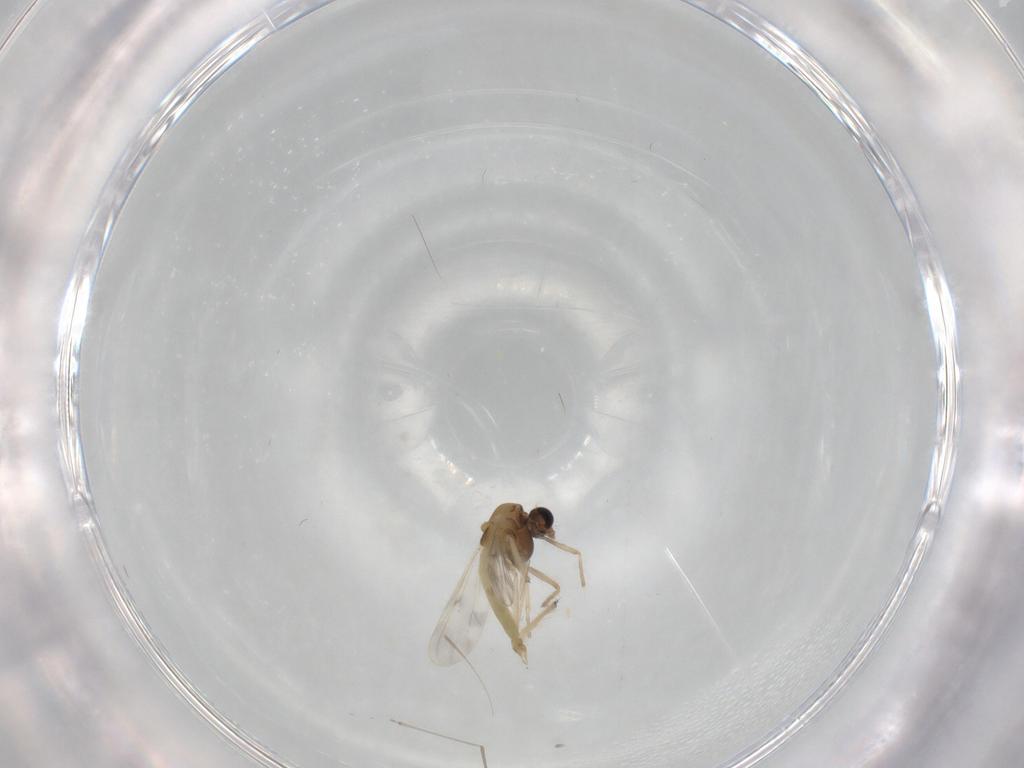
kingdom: Animalia
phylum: Arthropoda
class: Insecta
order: Diptera
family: Chironomidae
